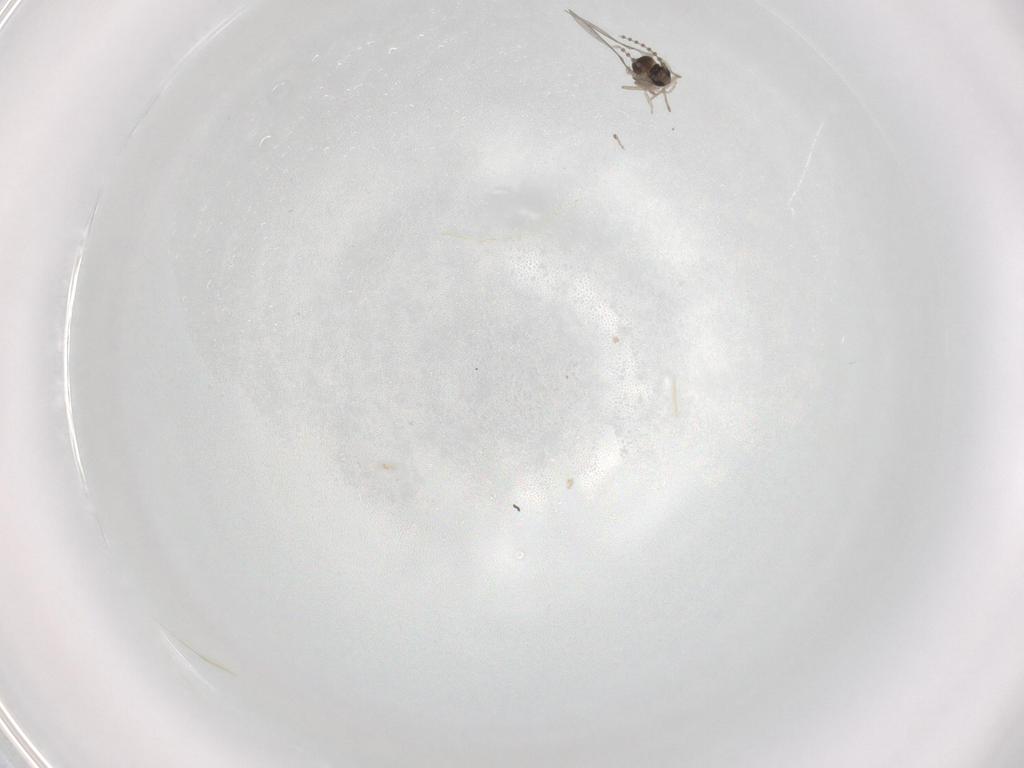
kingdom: Animalia
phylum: Arthropoda
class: Insecta
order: Diptera
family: Cecidomyiidae
